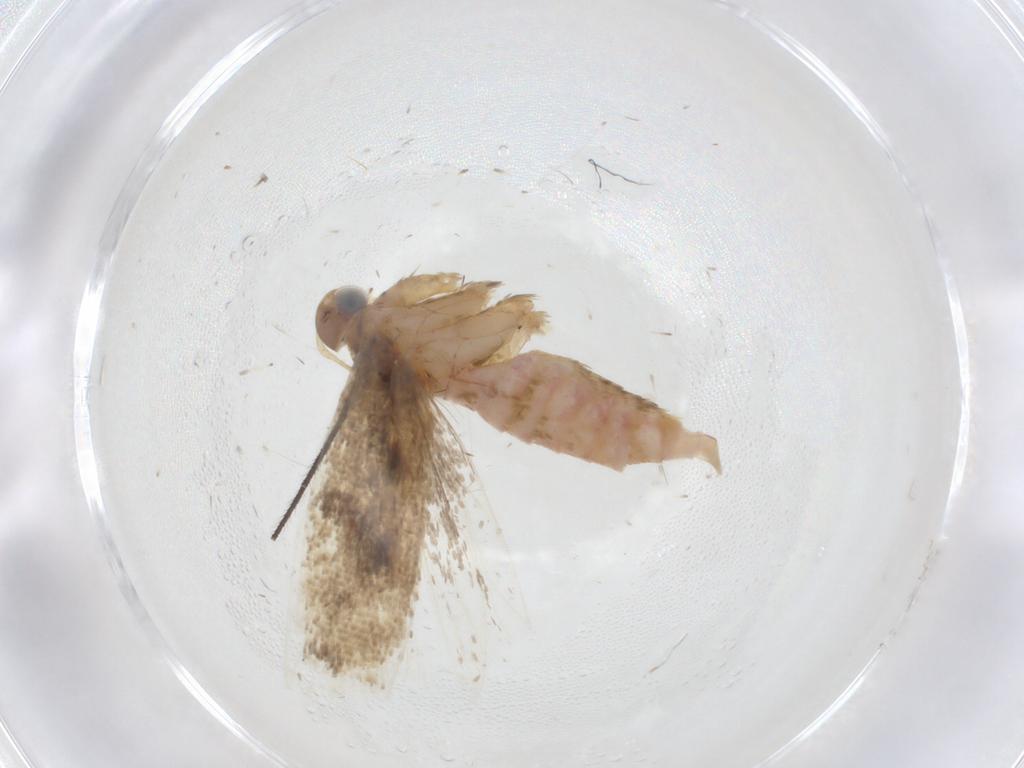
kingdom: Animalia
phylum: Arthropoda
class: Insecta
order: Lepidoptera
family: Gelechiidae
